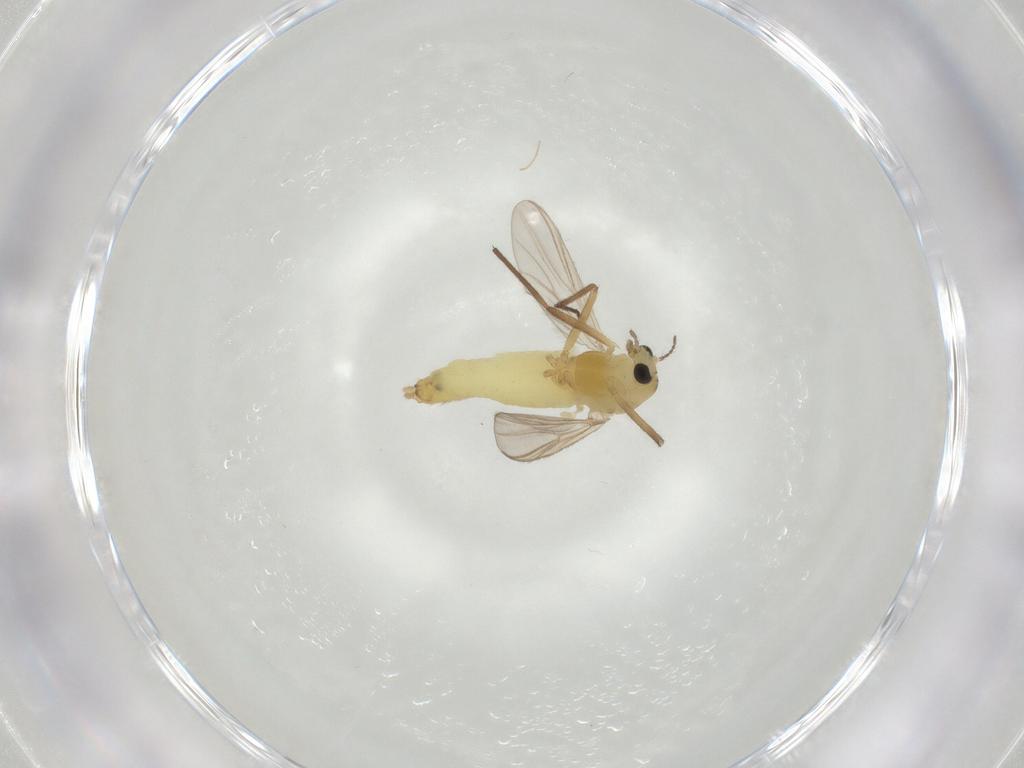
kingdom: Animalia
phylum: Arthropoda
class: Insecta
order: Diptera
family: Chironomidae
